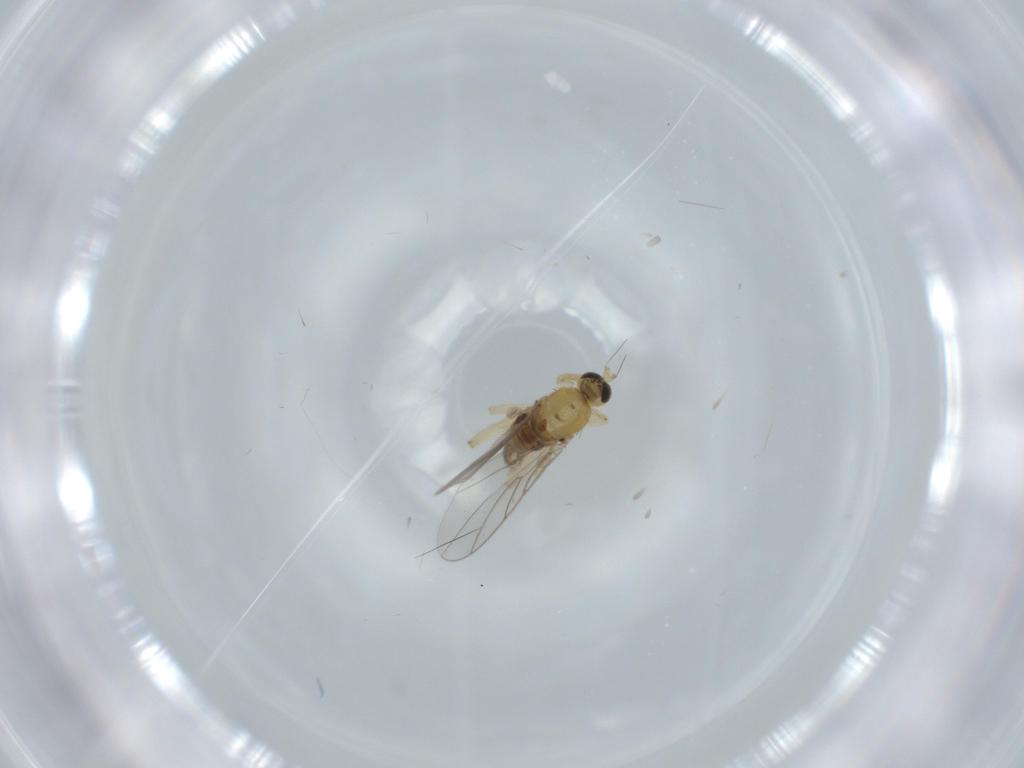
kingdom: Animalia
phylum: Arthropoda
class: Insecta
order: Diptera
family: Hybotidae
